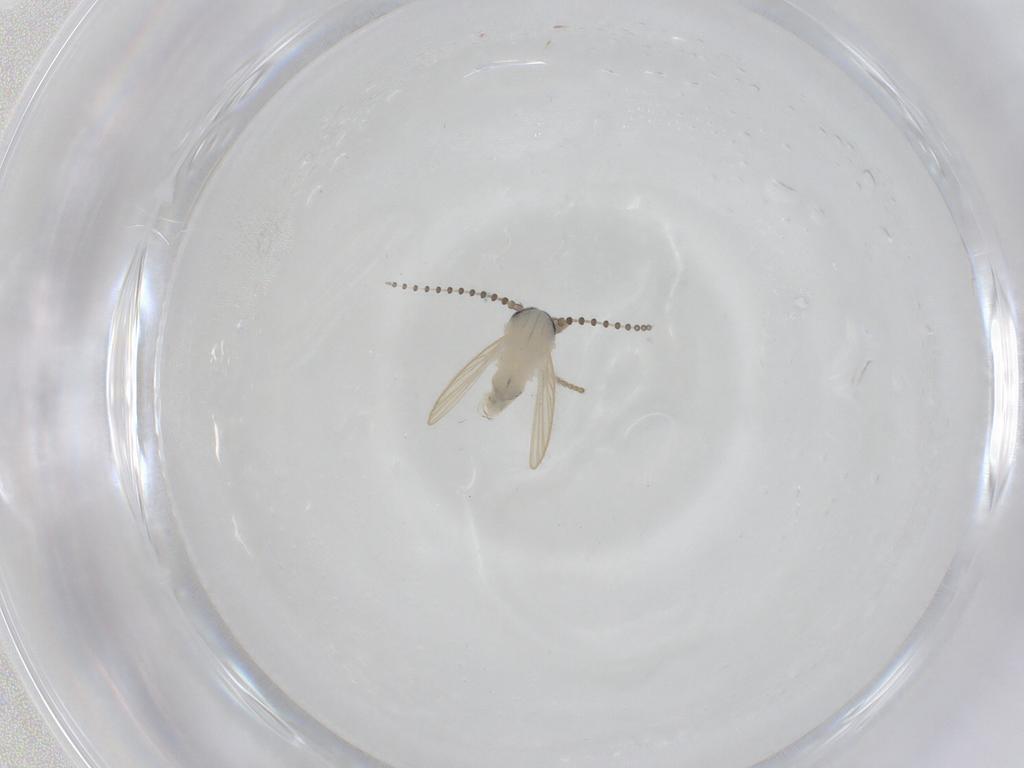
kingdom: Animalia
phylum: Arthropoda
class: Insecta
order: Diptera
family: Psychodidae
